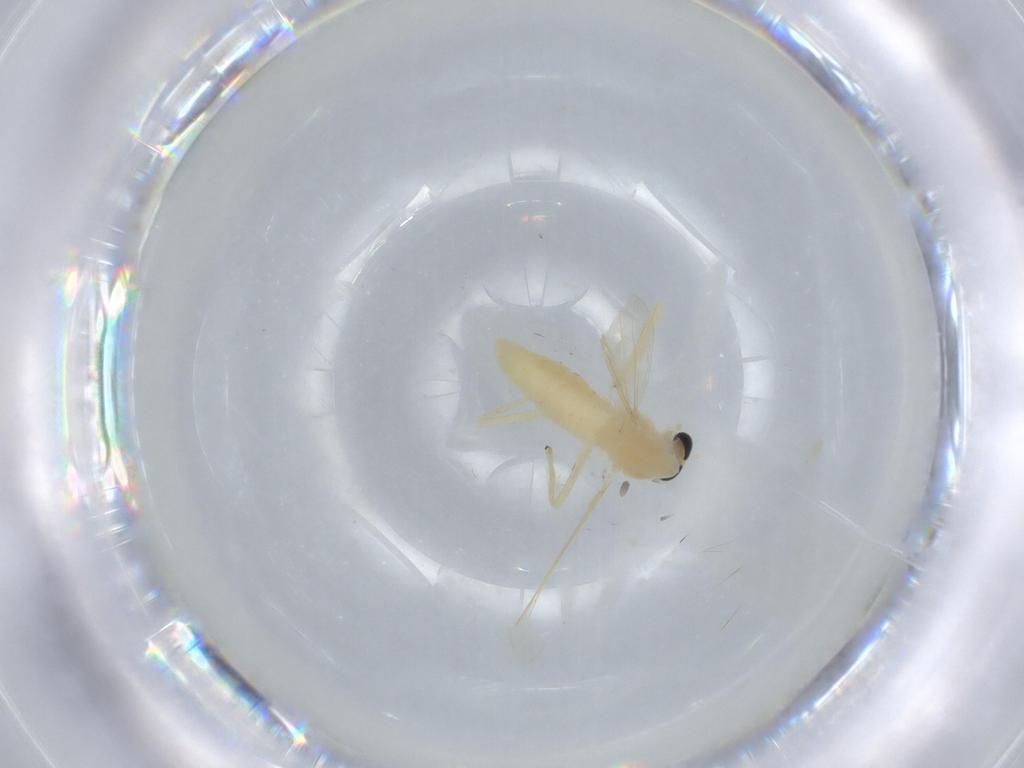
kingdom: Animalia
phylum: Arthropoda
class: Insecta
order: Diptera
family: Chironomidae
